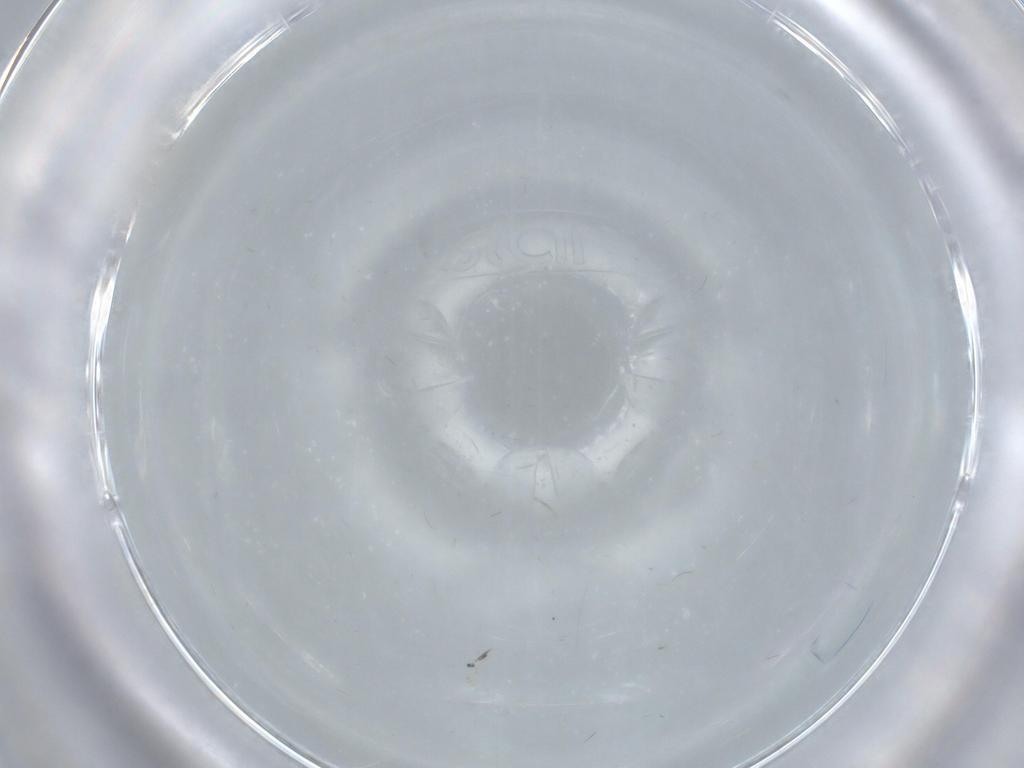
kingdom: Animalia
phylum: Arthropoda
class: Insecta
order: Diptera
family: Cecidomyiidae
